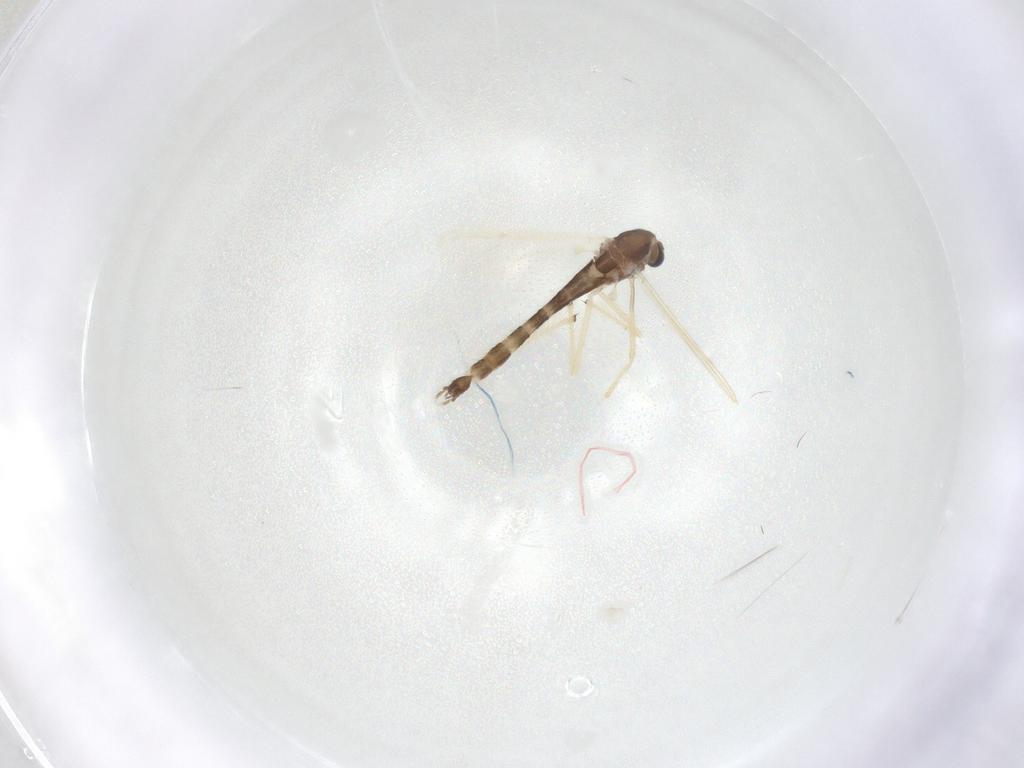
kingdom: Animalia
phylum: Arthropoda
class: Insecta
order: Diptera
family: Chironomidae
